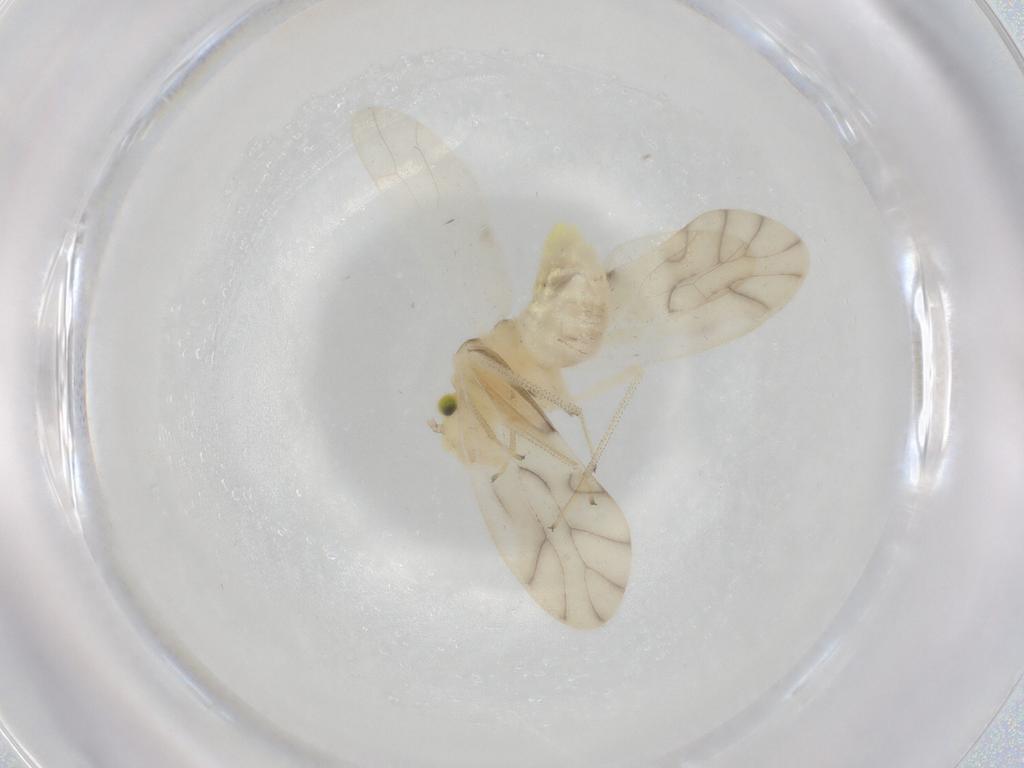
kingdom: Animalia
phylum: Arthropoda
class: Insecta
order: Psocodea
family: Caeciliusidae
